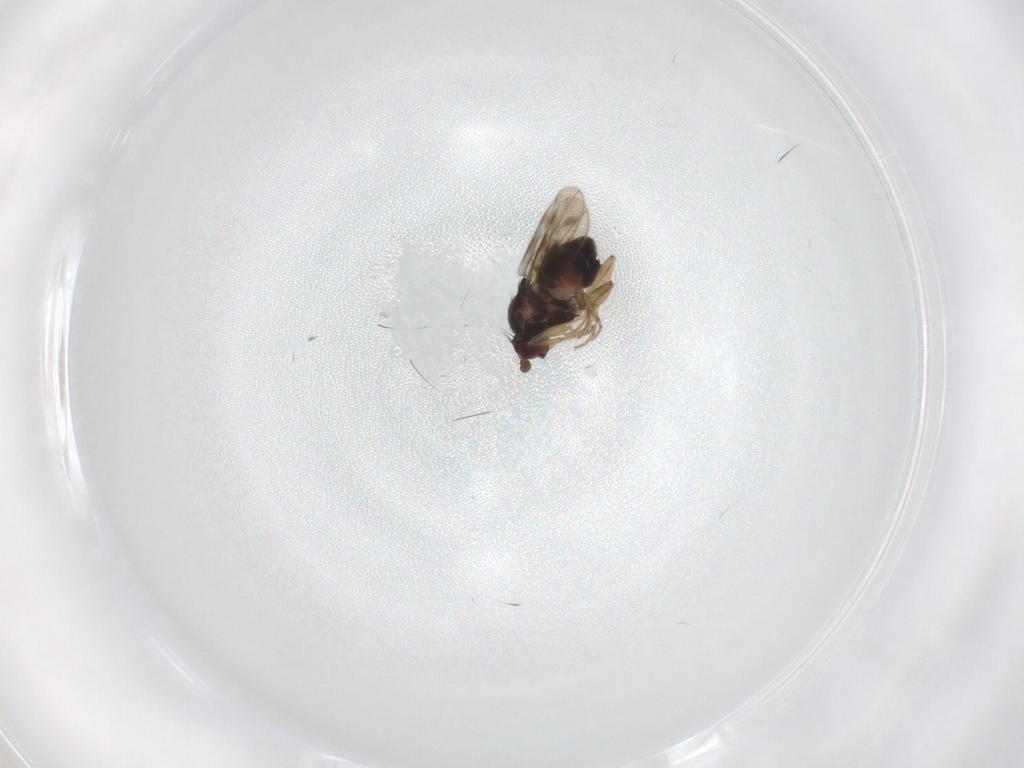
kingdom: Animalia
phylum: Arthropoda
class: Insecta
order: Diptera
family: Sphaeroceridae
